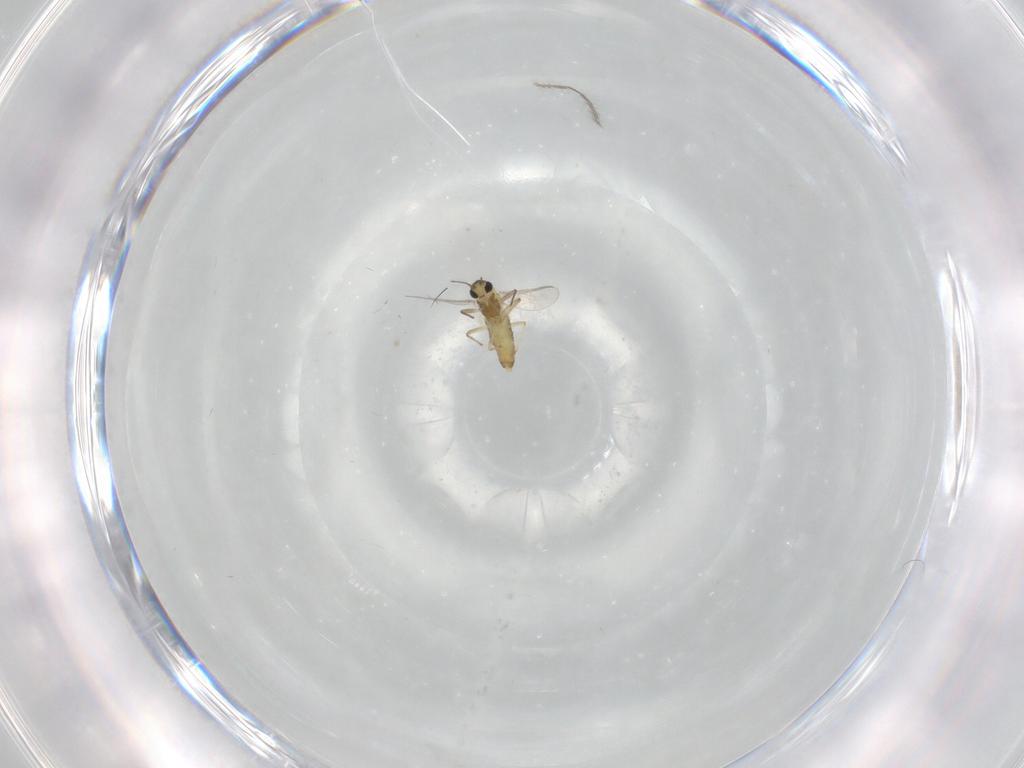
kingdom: Animalia
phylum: Arthropoda
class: Insecta
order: Diptera
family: Chironomidae
